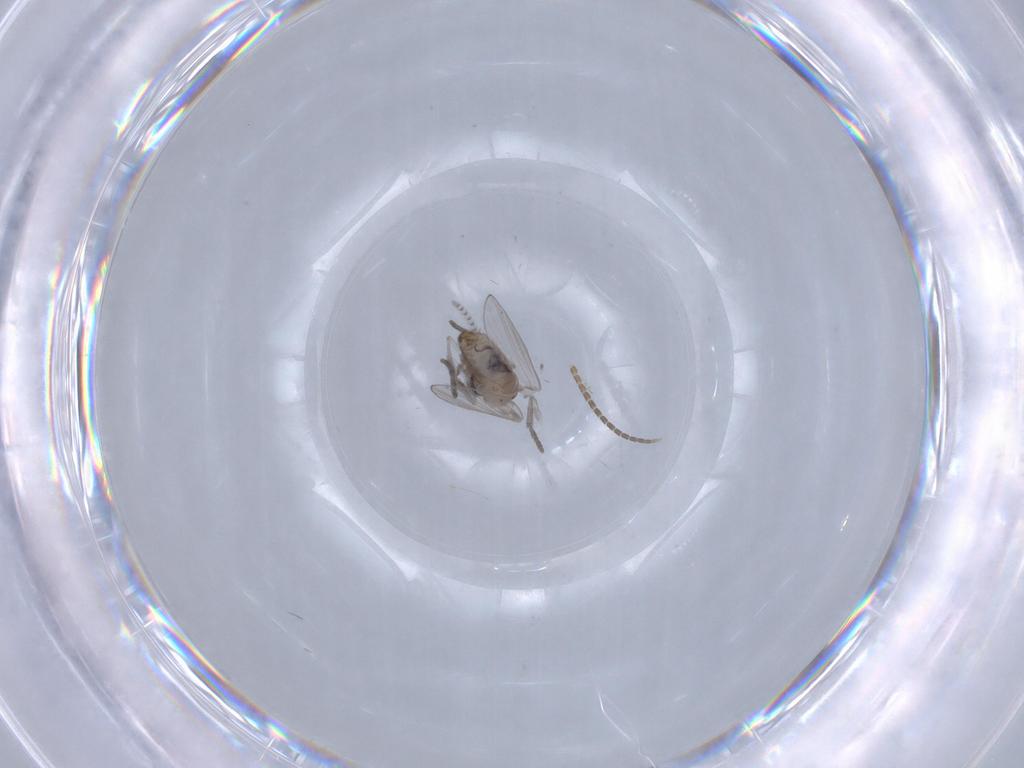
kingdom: Animalia
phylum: Arthropoda
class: Insecta
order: Diptera
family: Psychodidae
